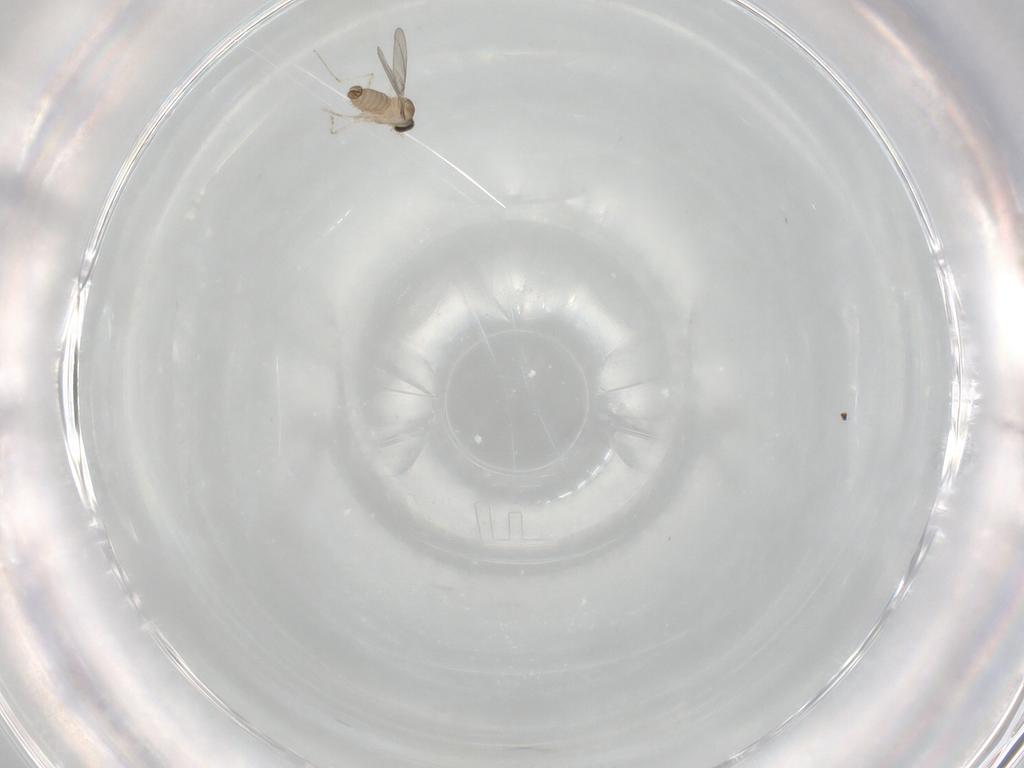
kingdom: Animalia
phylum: Arthropoda
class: Insecta
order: Diptera
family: Cecidomyiidae
